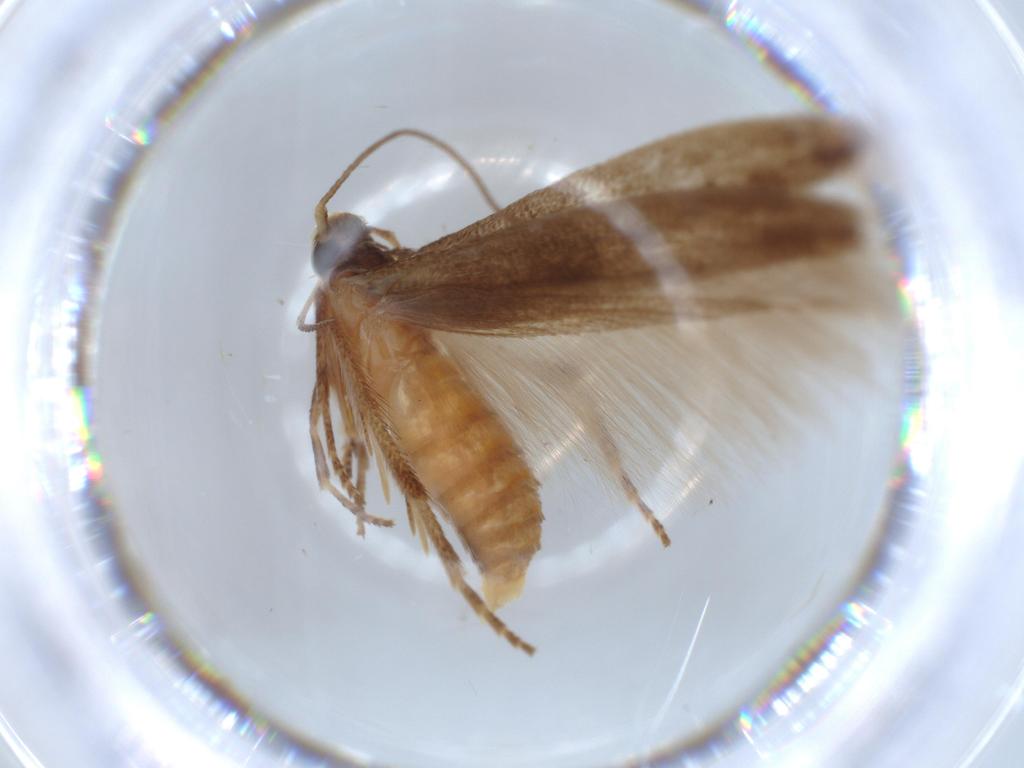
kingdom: Animalia
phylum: Arthropoda
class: Insecta
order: Lepidoptera
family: Stathmopodidae
